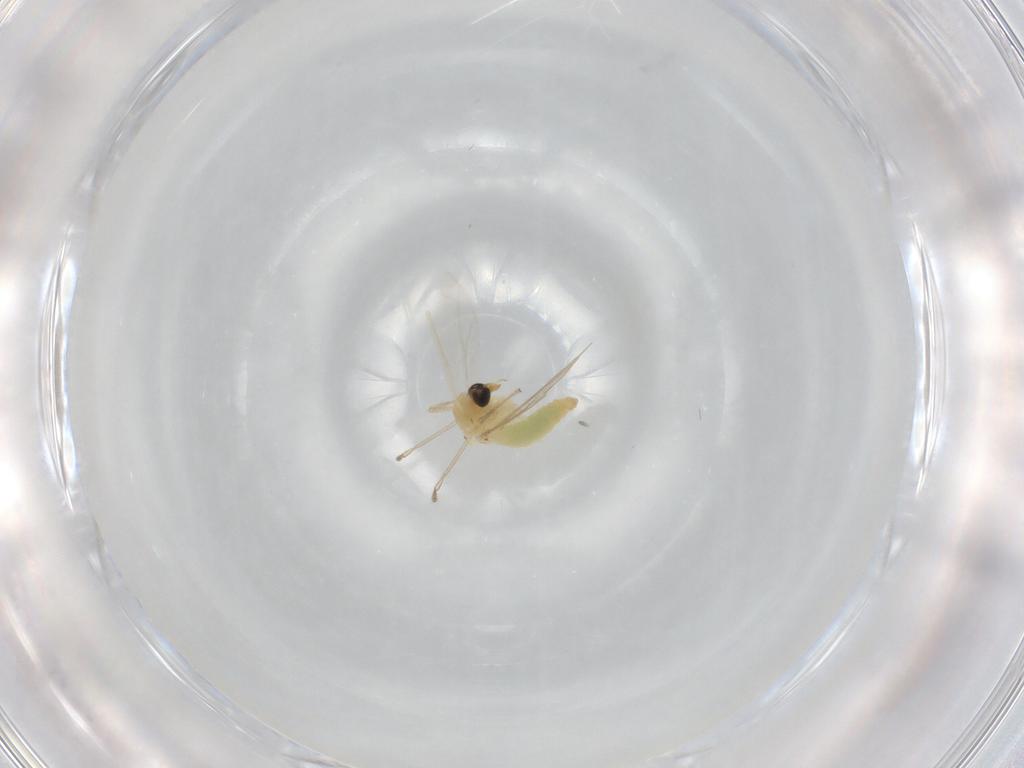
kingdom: Animalia
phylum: Arthropoda
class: Insecta
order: Diptera
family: Chironomidae
